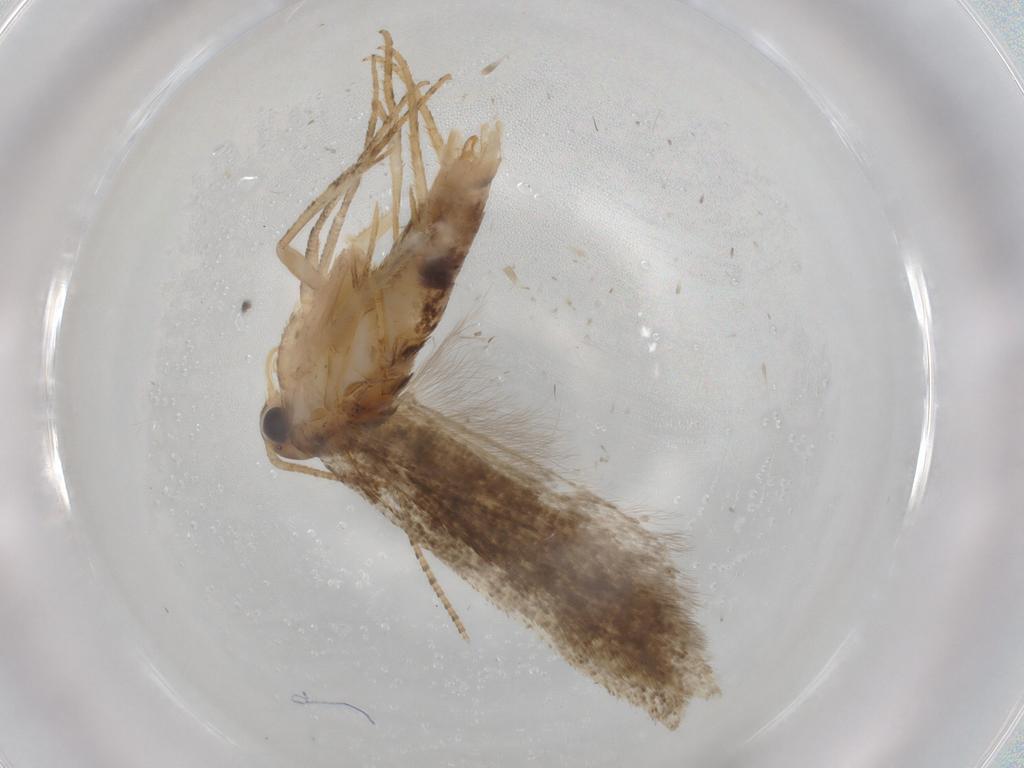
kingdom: Animalia
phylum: Arthropoda
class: Insecta
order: Lepidoptera
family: Gelechiidae
